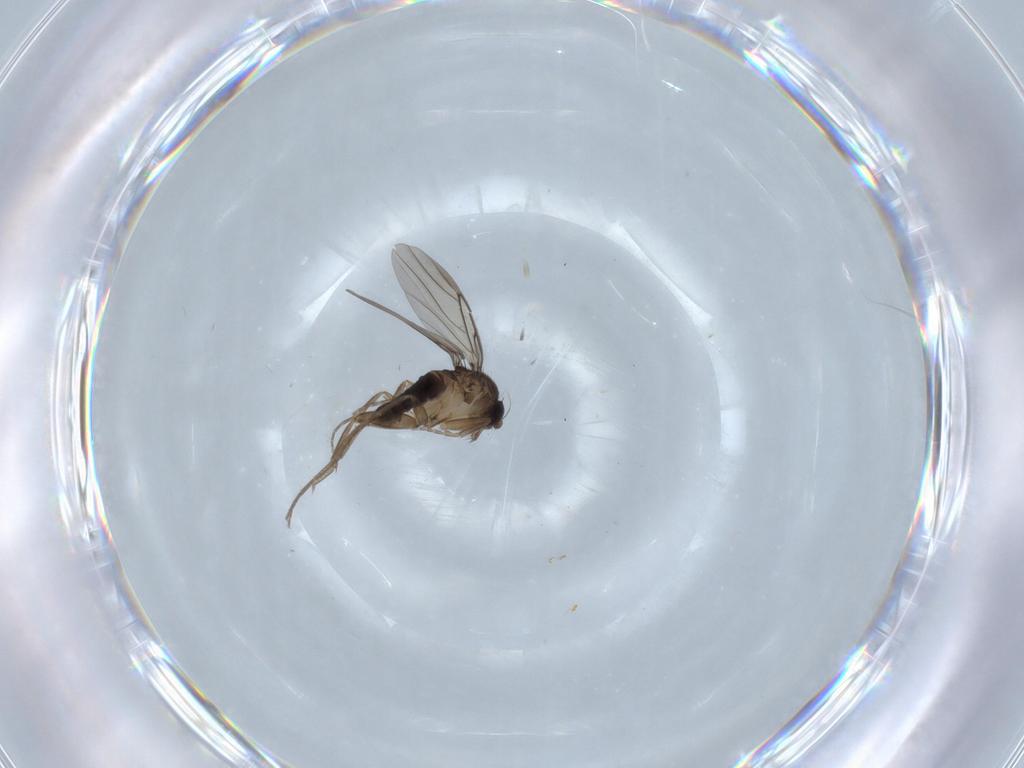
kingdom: Animalia
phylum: Arthropoda
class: Insecta
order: Diptera
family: Phoridae
